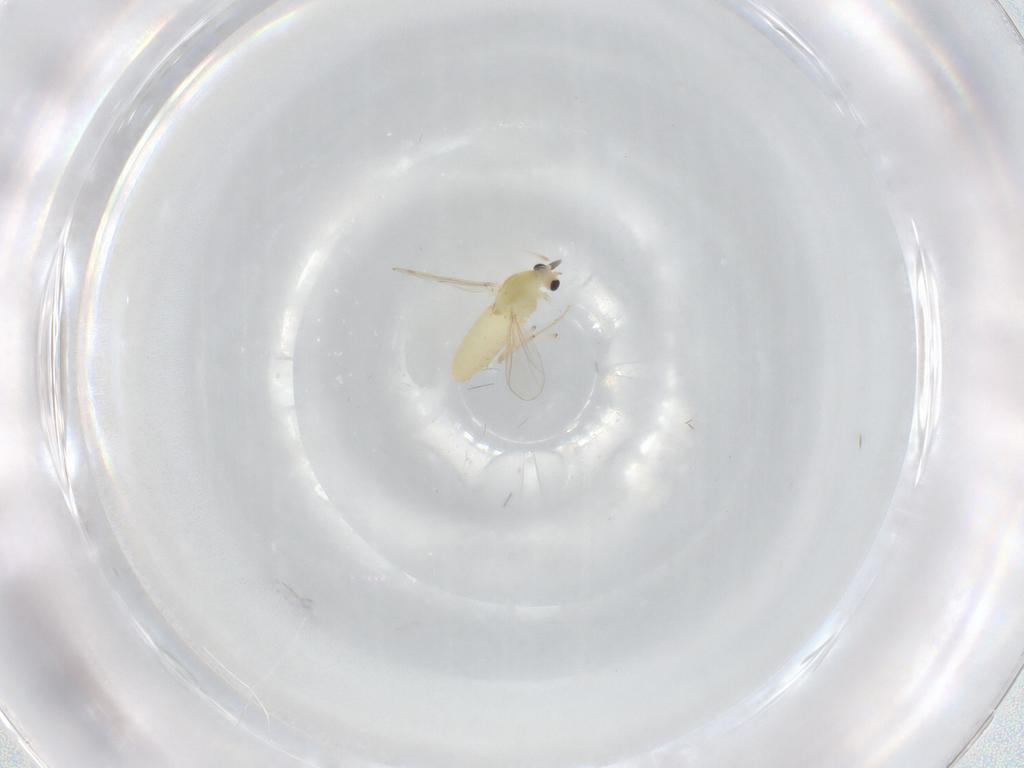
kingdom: Animalia
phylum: Arthropoda
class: Insecta
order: Diptera
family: Chironomidae
